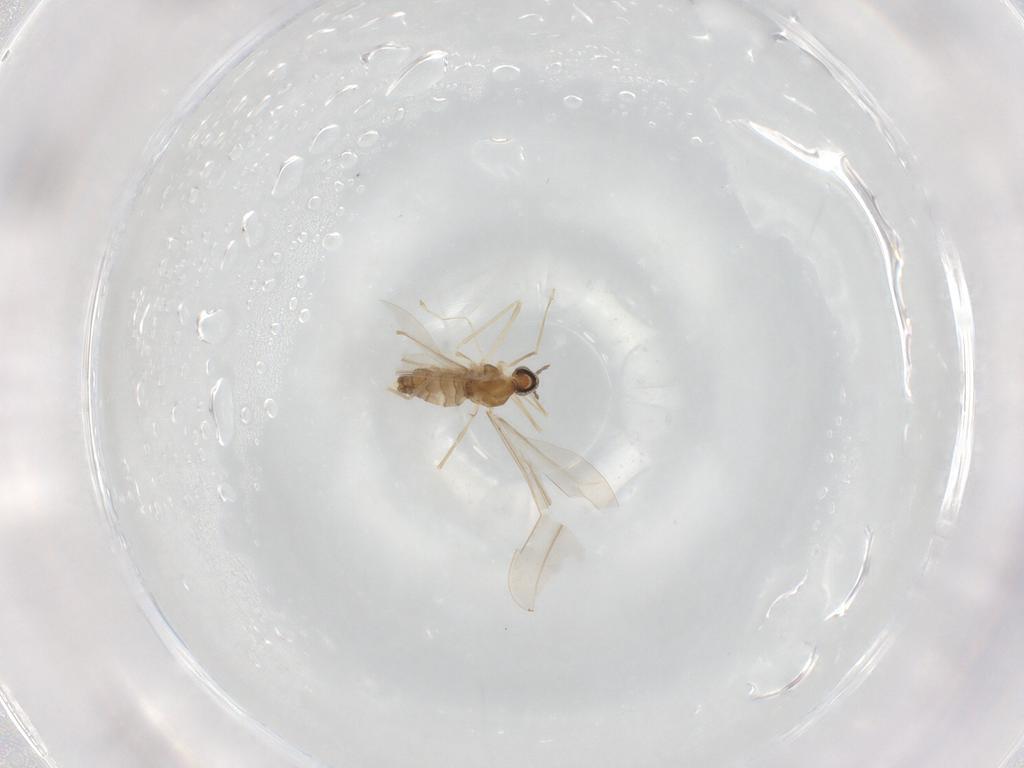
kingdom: Animalia
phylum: Arthropoda
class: Insecta
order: Diptera
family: Cecidomyiidae
